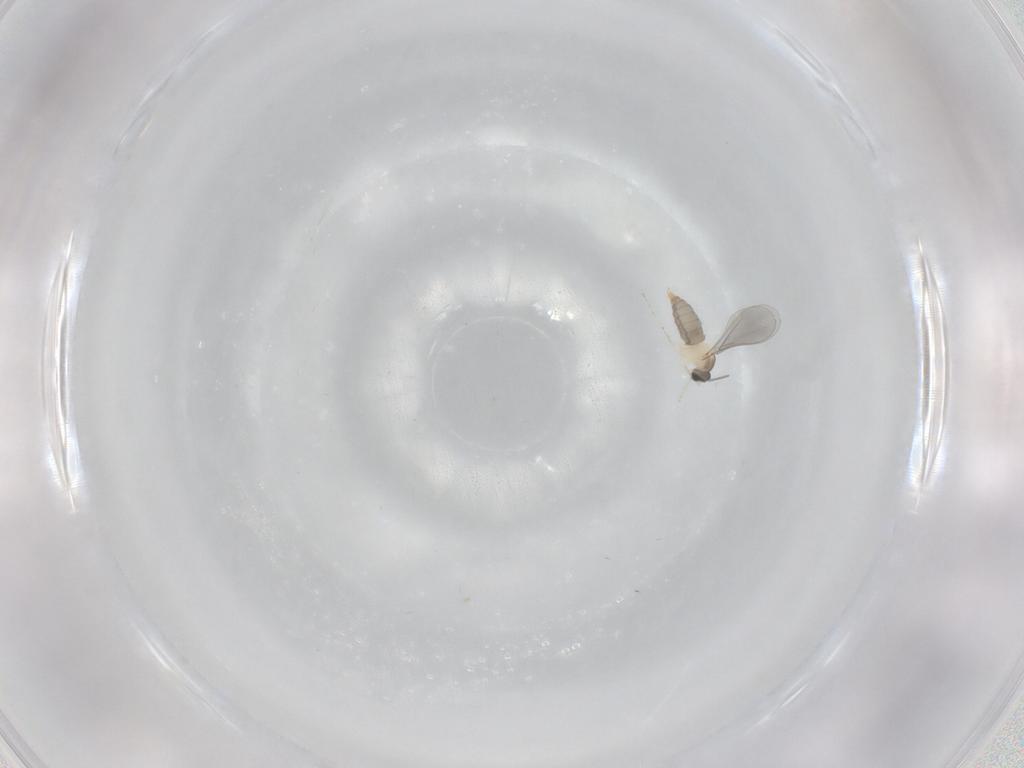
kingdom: Animalia
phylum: Arthropoda
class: Insecta
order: Diptera
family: Cecidomyiidae
